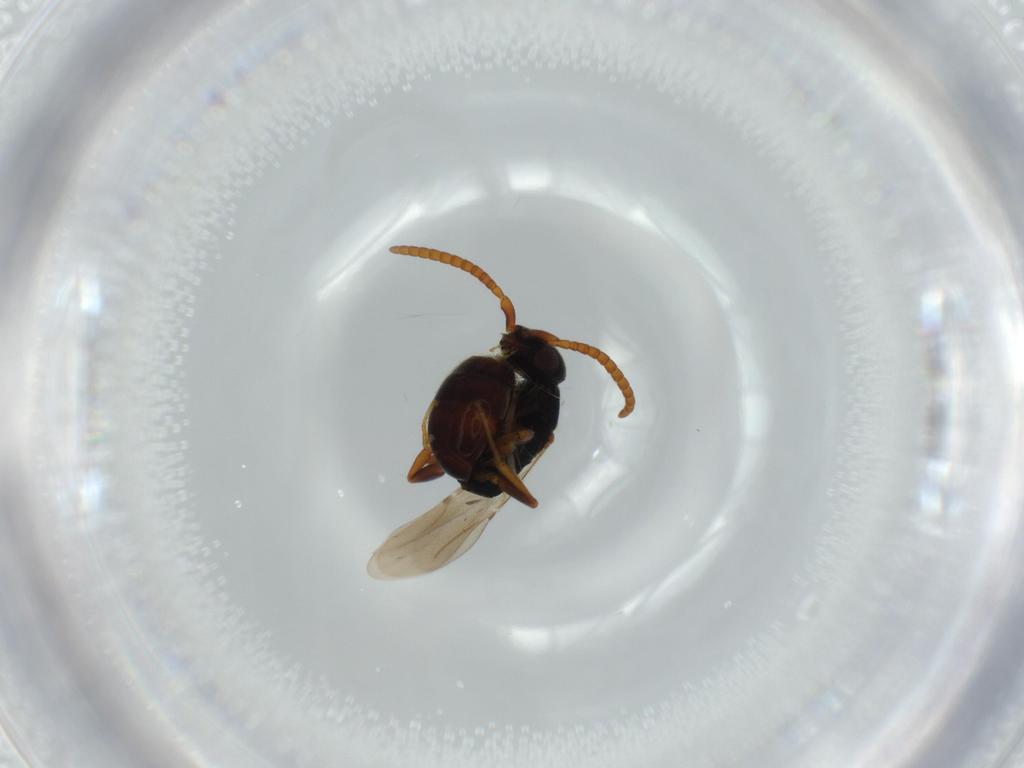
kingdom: Animalia
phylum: Arthropoda
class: Insecta
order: Hymenoptera
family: Bethylidae
